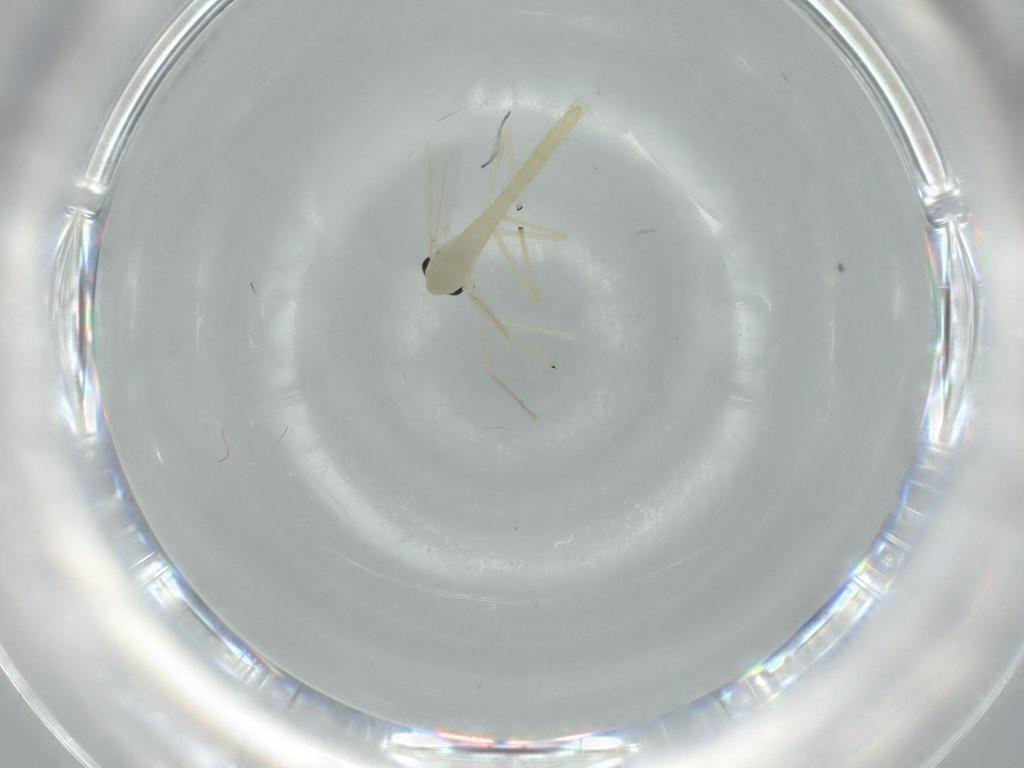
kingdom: Animalia
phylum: Arthropoda
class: Insecta
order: Diptera
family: Chironomidae
